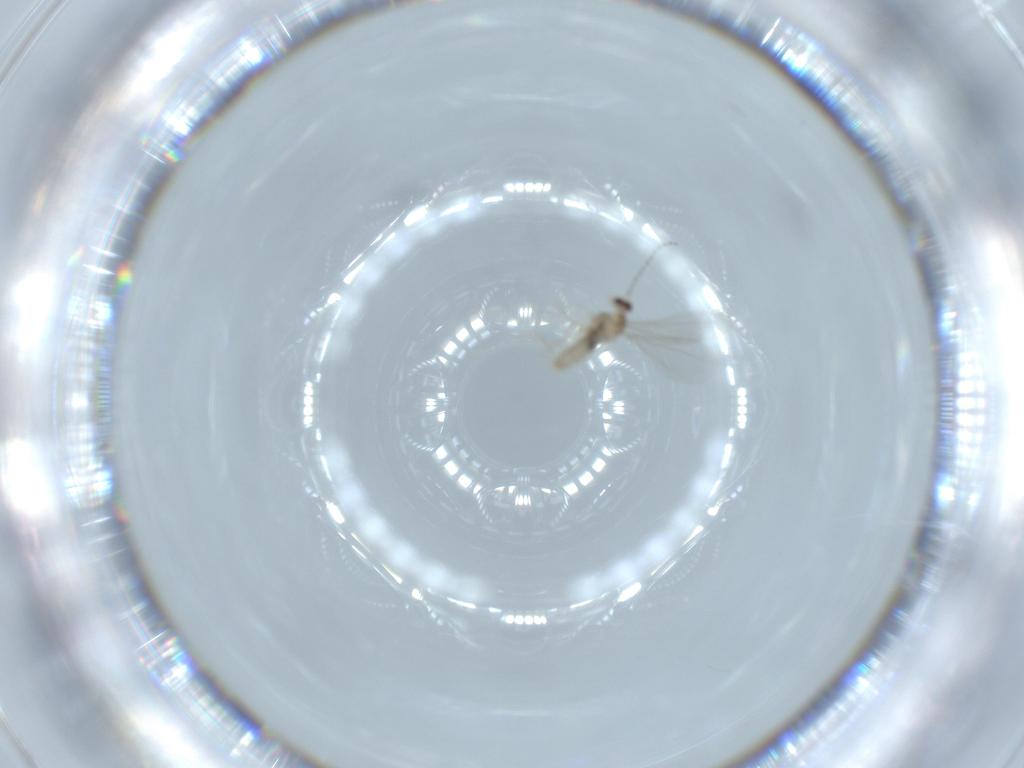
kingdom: Animalia
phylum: Arthropoda
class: Insecta
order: Diptera
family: Cecidomyiidae
